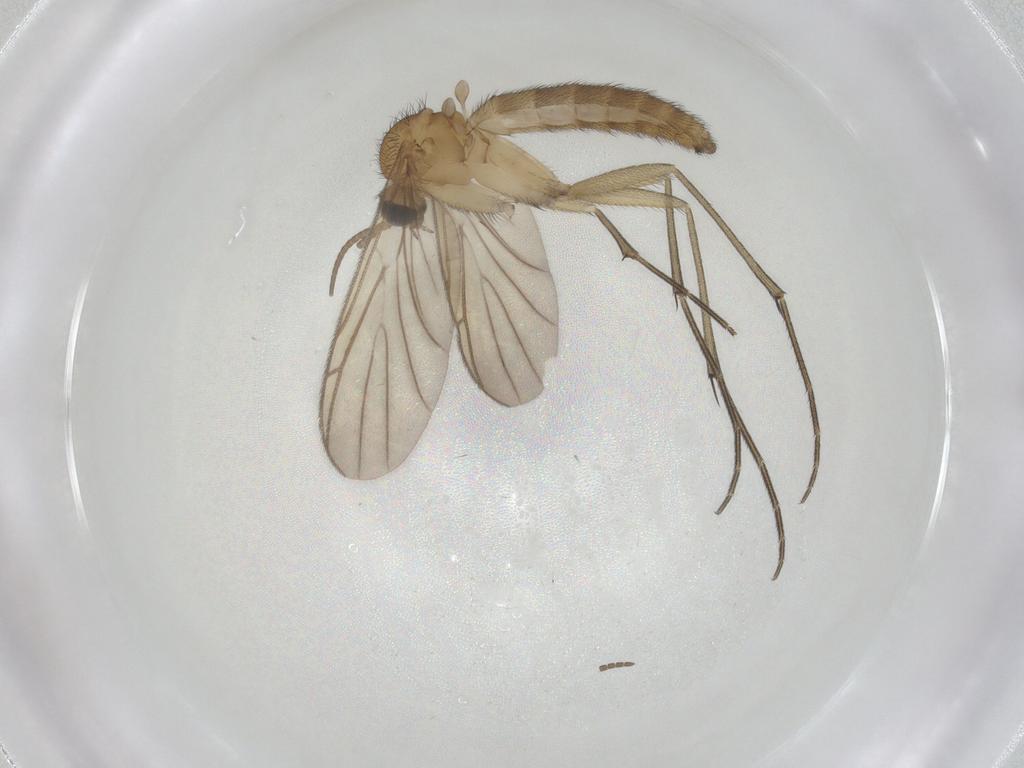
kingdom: Animalia
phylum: Arthropoda
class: Insecta
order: Diptera
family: Keroplatidae
